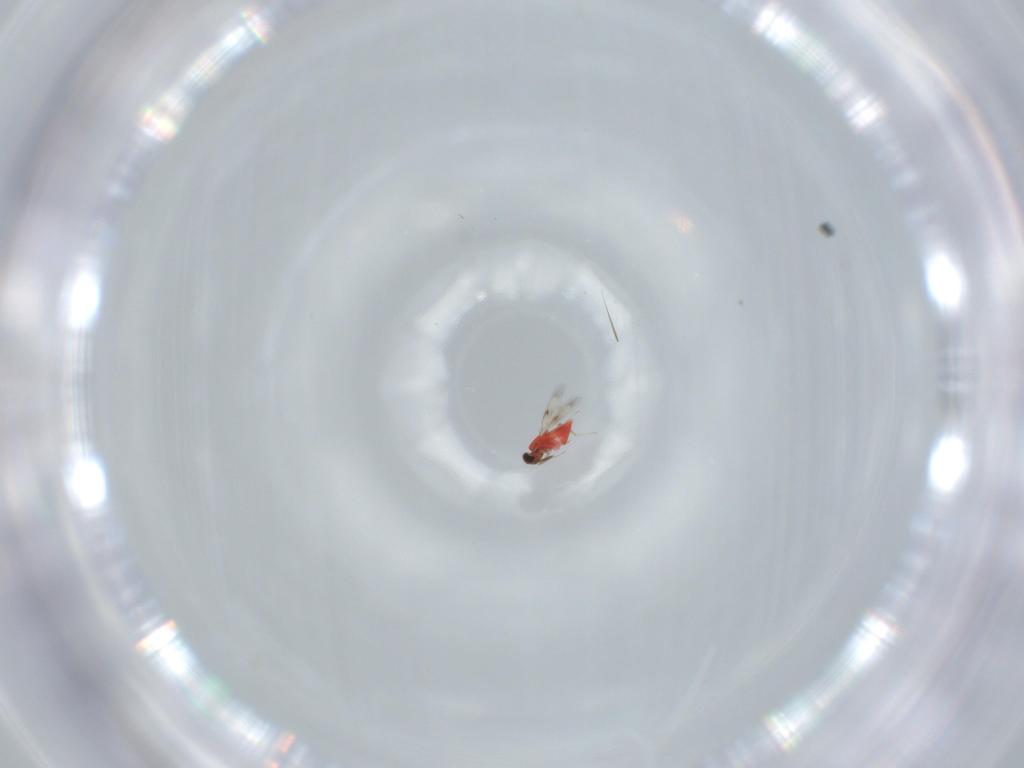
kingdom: Animalia
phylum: Arthropoda
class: Insecta
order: Hymenoptera
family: Trichogrammatidae
